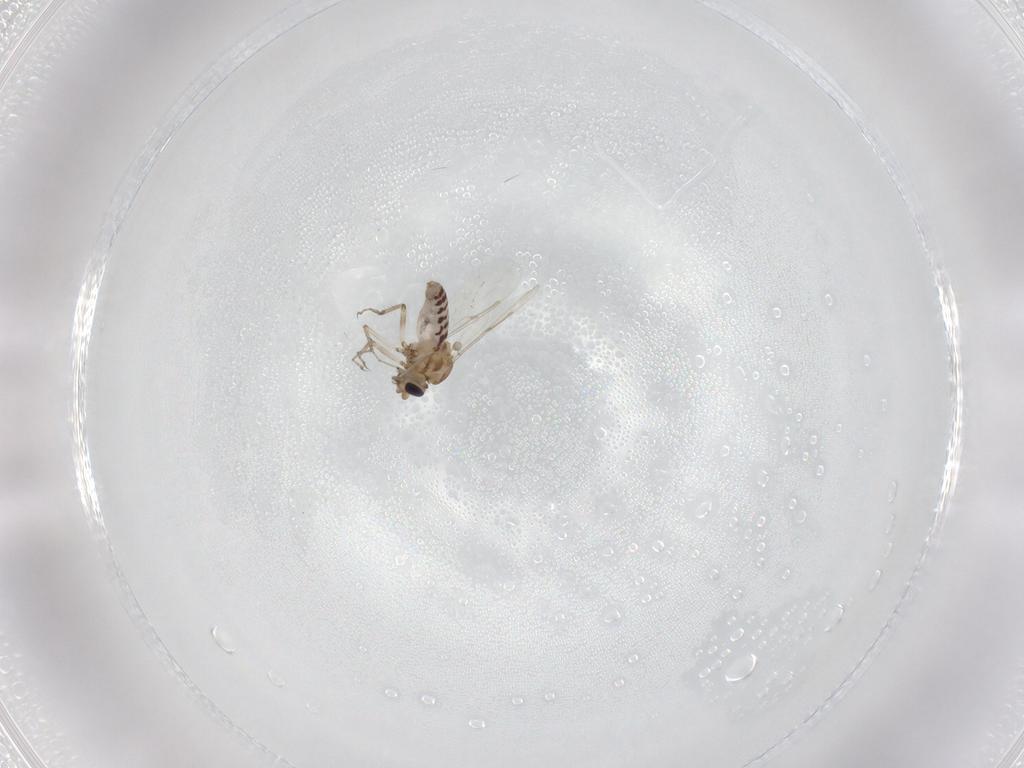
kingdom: Animalia
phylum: Arthropoda
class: Insecta
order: Diptera
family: Ceratopogonidae
